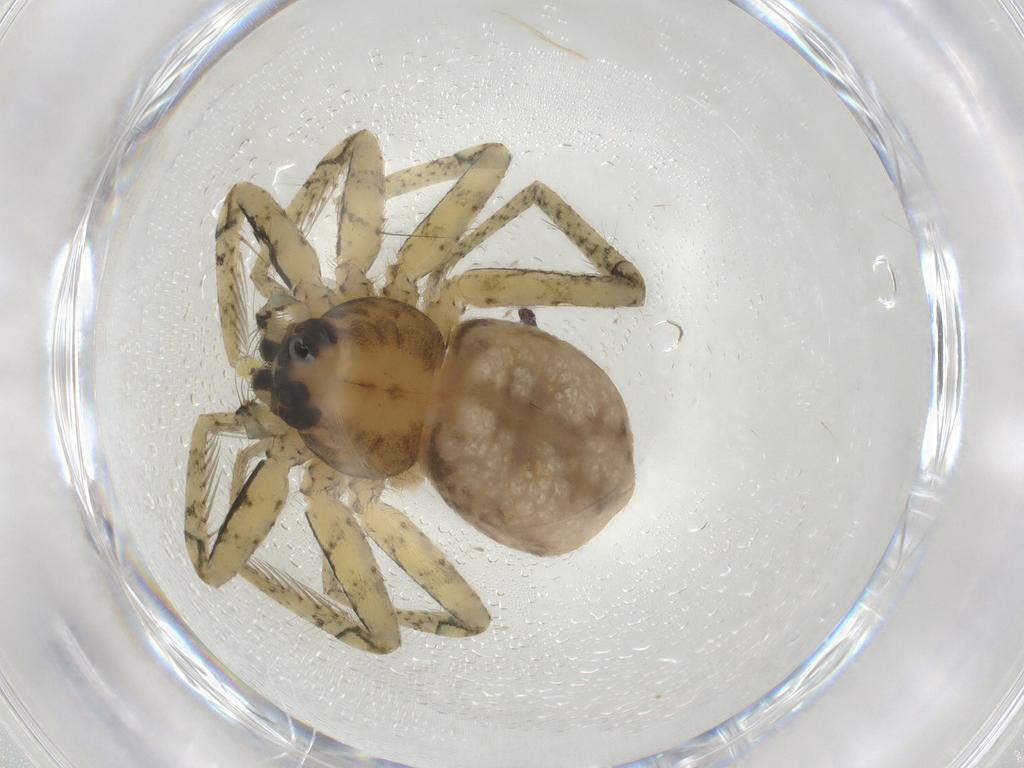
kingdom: Animalia
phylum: Arthropoda
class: Arachnida
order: Araneae
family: Selenopidae
